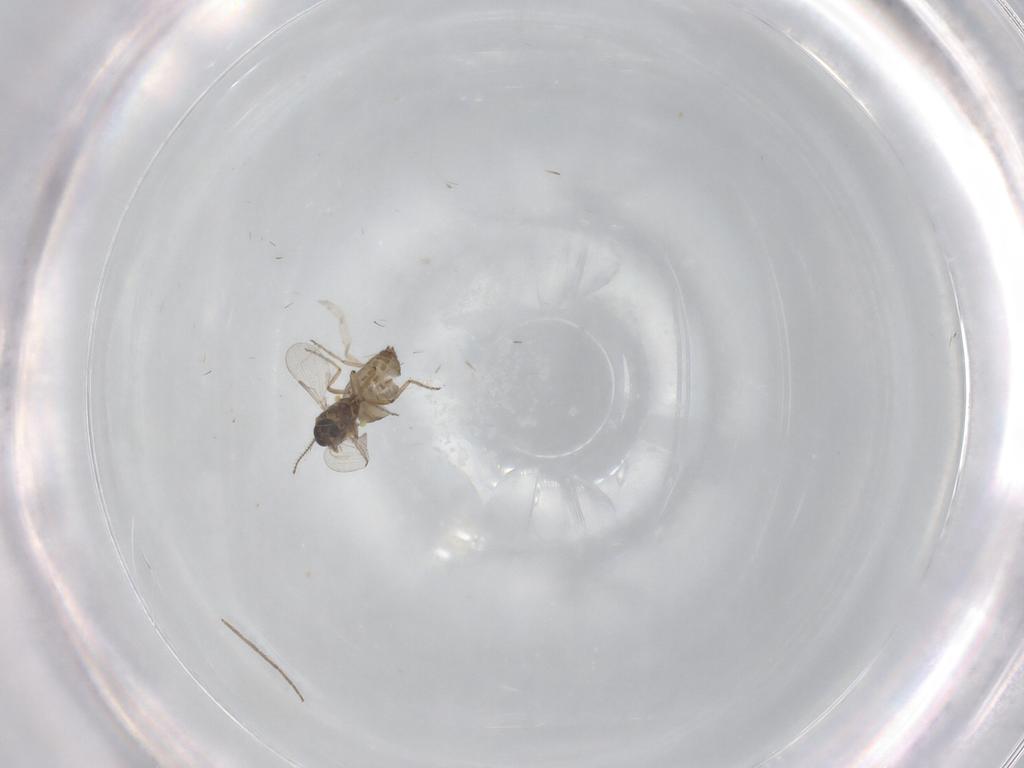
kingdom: Animalia
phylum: Arthropoda
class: Insecta
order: Diptera
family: Ceratopogonidae
